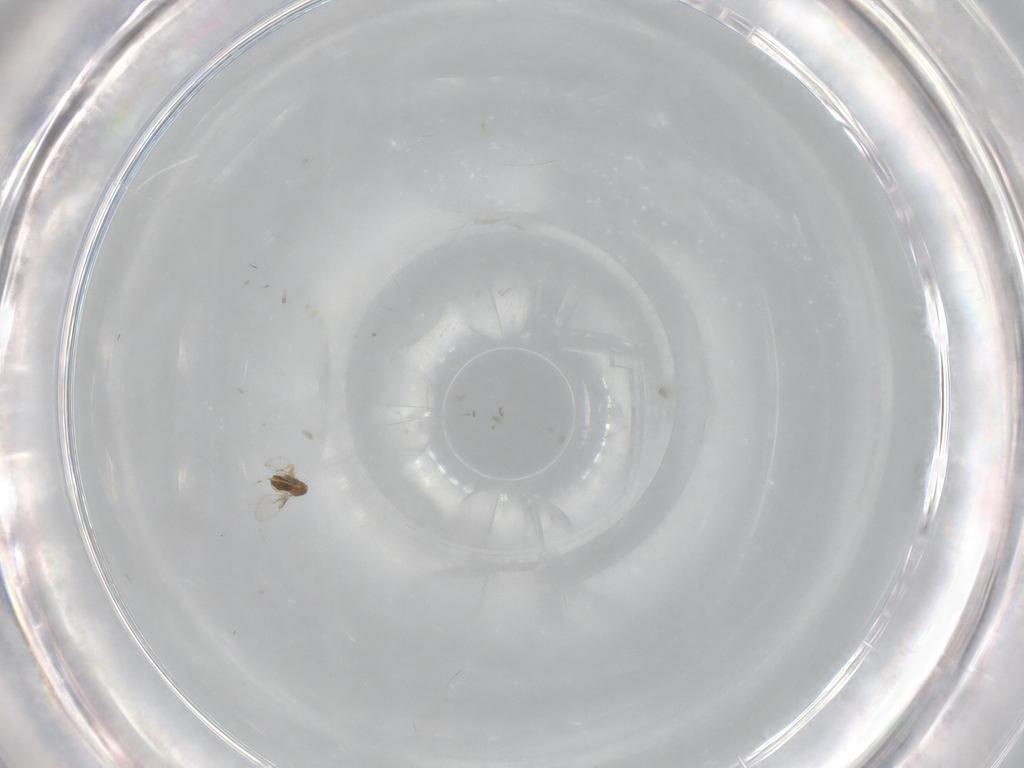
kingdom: Animalia
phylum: Arthropoda
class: Insecta
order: Hymenoptera
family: Trichogrammatidae
